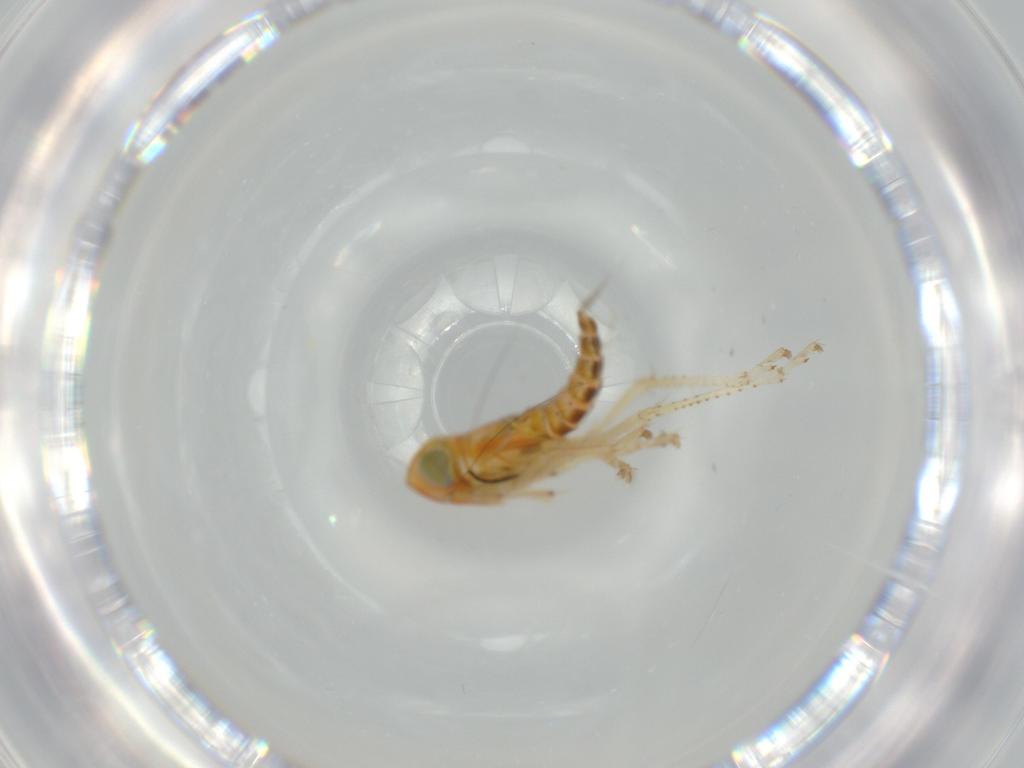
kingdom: Animalia
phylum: Arthropoda
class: Insecta
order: Hemiptera
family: Cicadellidae
